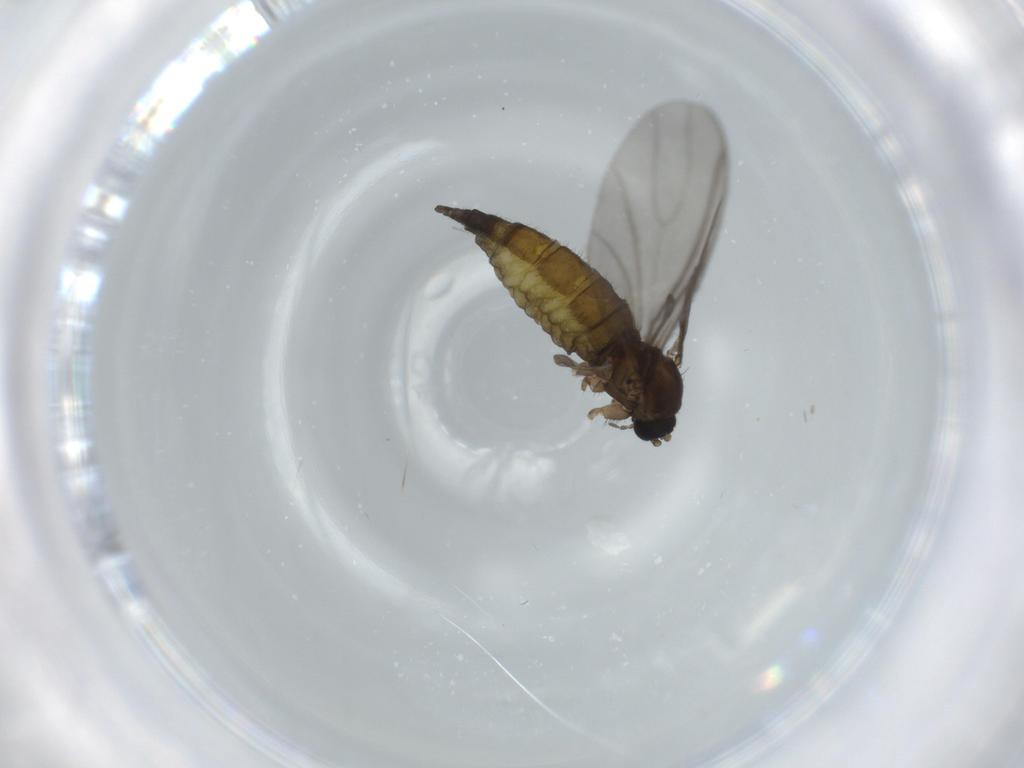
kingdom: Animalia
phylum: Arthropoda
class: Insecta
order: Diptera
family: Sciaridae
